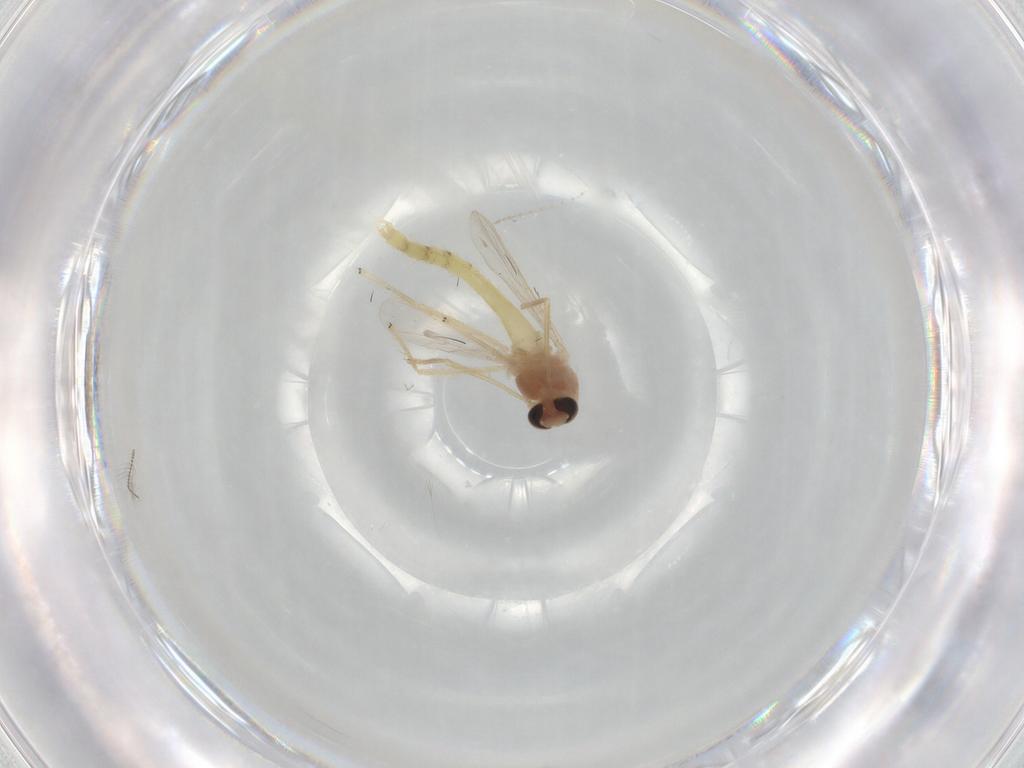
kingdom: Animalia
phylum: Arthropoda
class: Insecta
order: Diptera
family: Chironomidae
